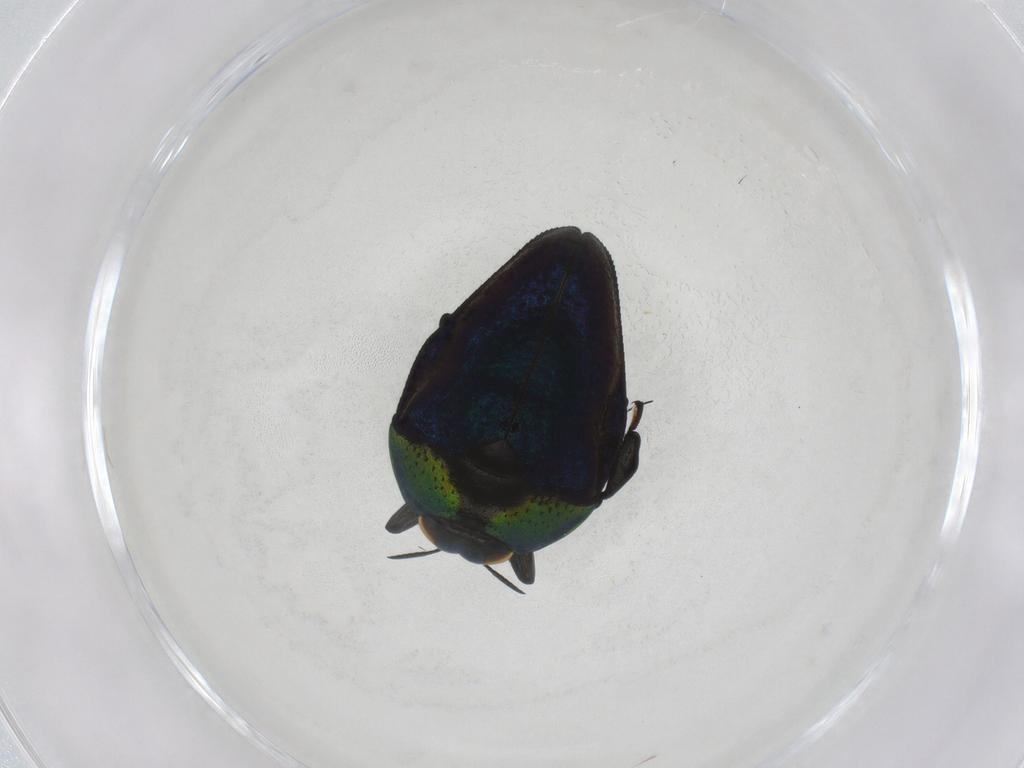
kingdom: Animalia
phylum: Arthropoda
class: Insecta
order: Coleoptera
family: Buprestidae
